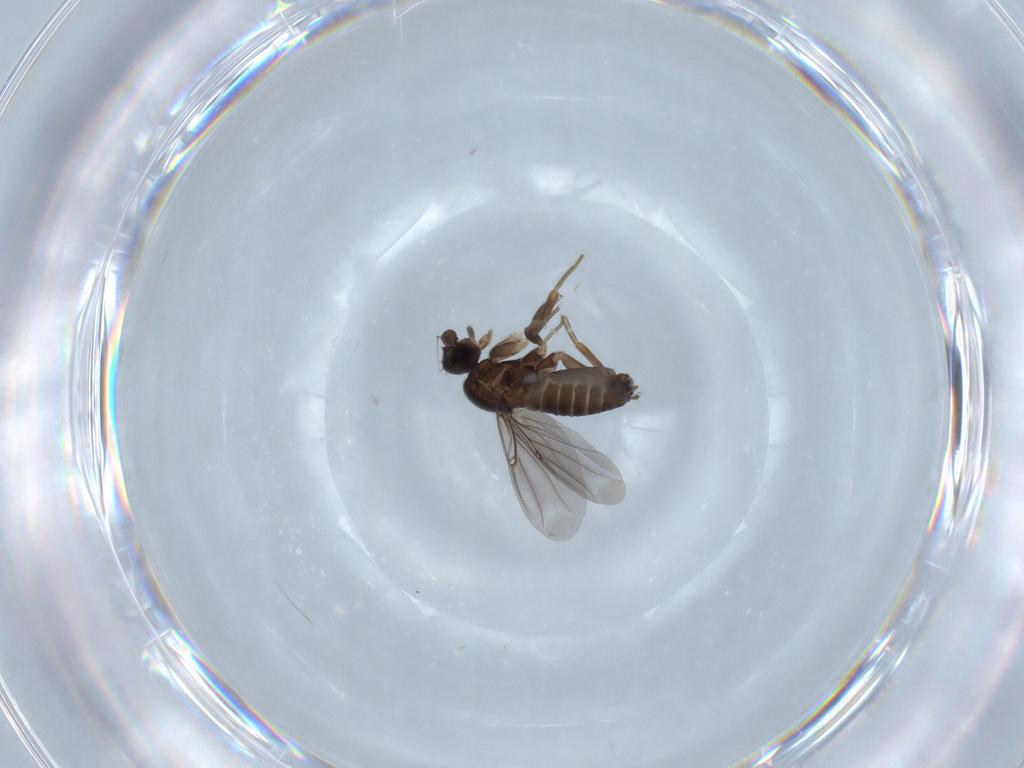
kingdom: Animalia
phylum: Arthropoda
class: Insecta
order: Diptera
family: Phoridae
